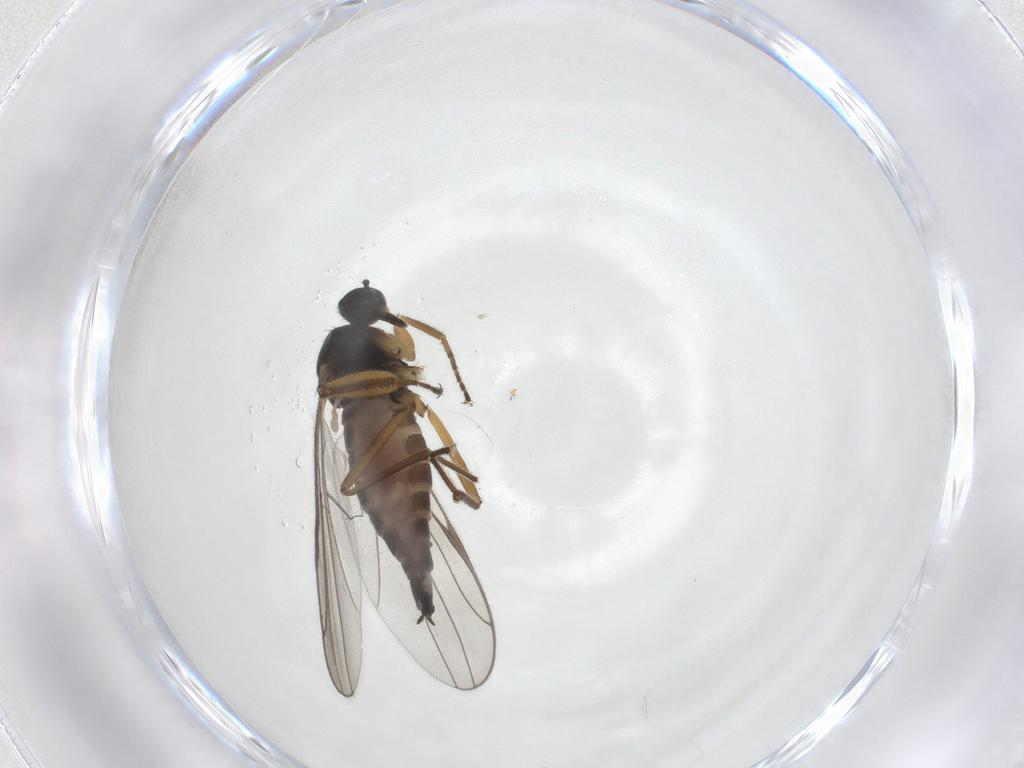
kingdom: Animalia
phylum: Arthropoda
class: Insecta
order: Diptera
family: Hybotidae
